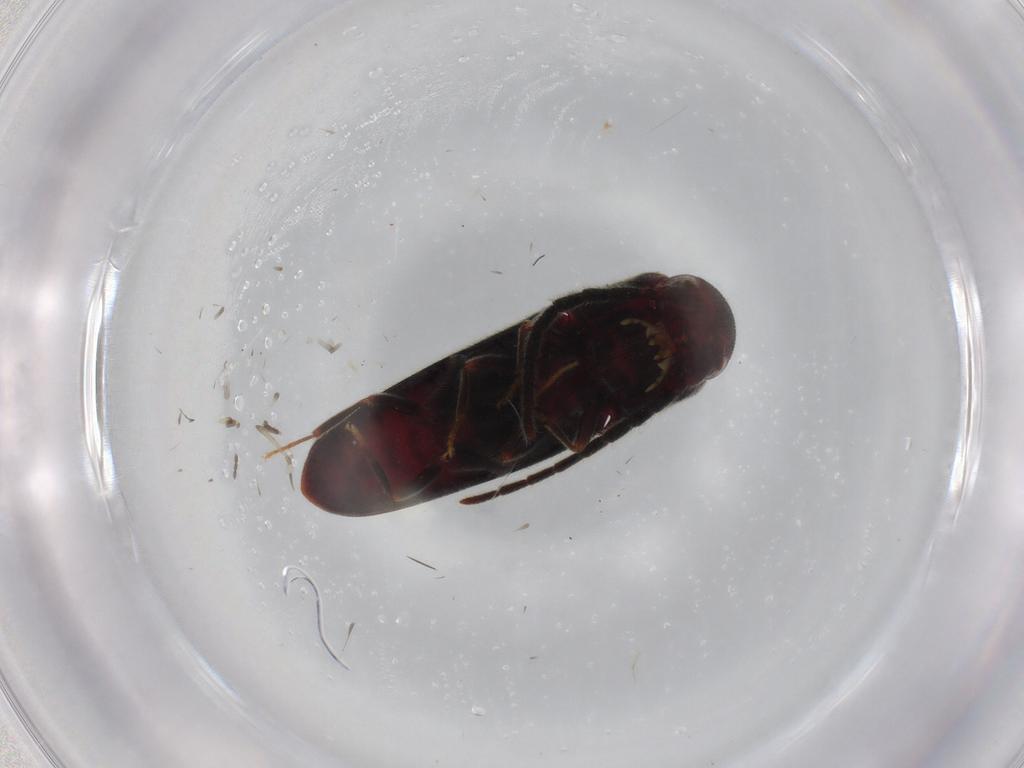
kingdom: Animalia
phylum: Arthropoda
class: Insecta
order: Coleoptera
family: Eucnemidae
